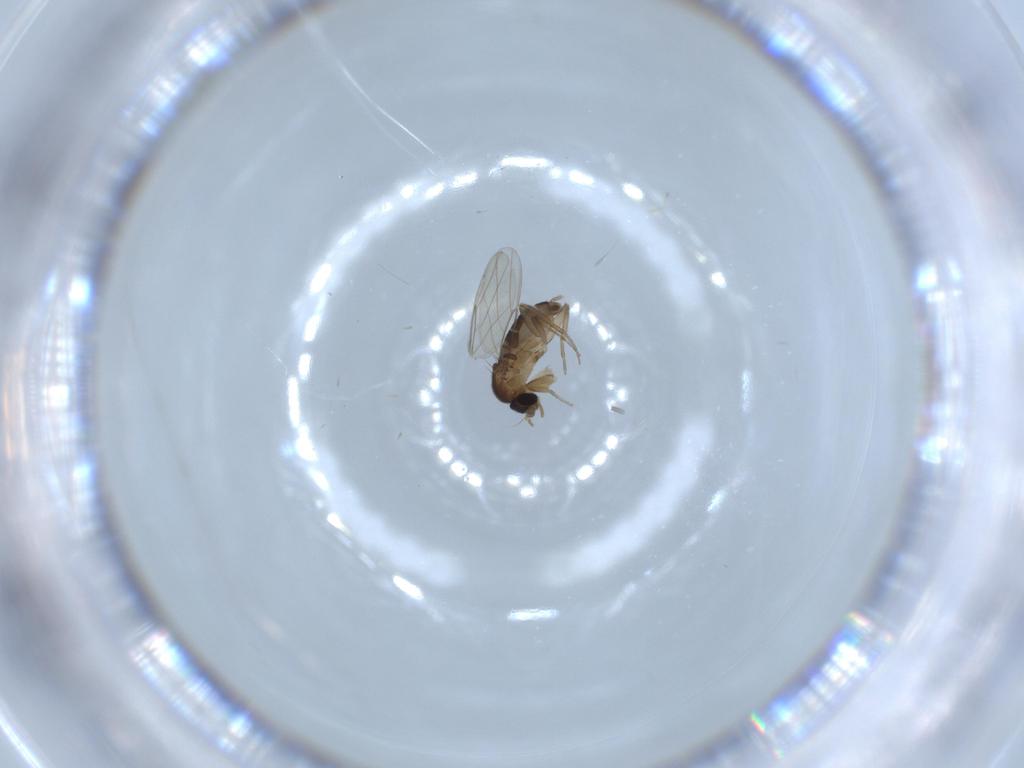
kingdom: Animalia
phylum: Arthropoda
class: Insecta
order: Diptera
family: Phoridae
